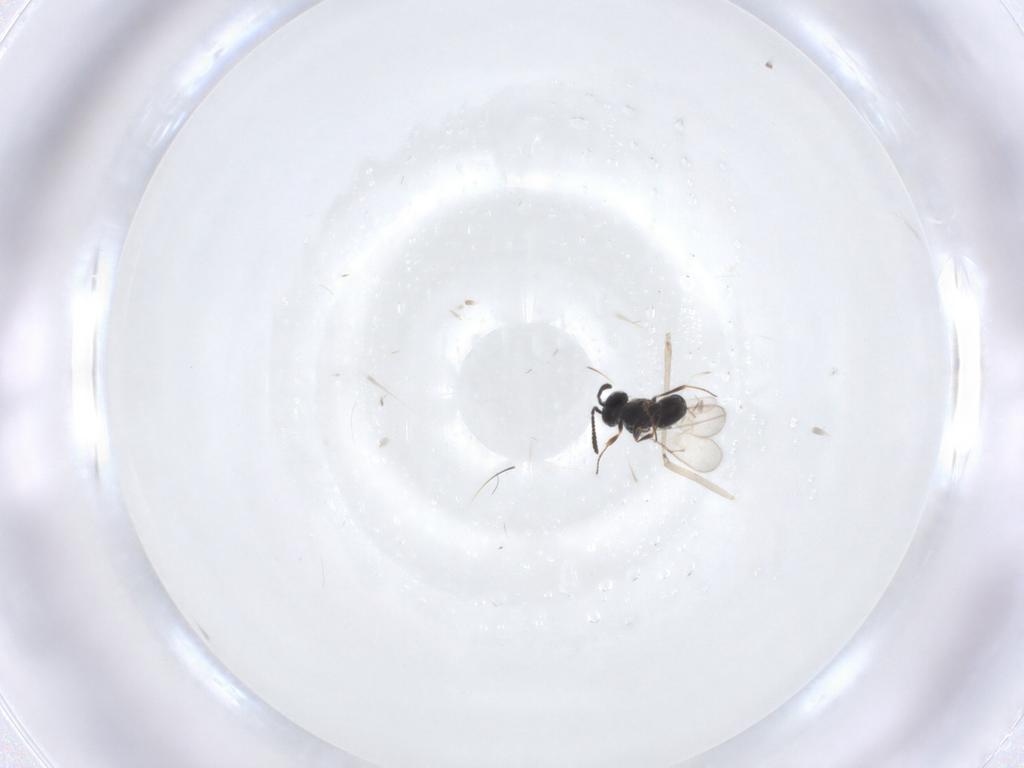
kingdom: Animalia
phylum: Arthropoda
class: Insecta
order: Hymenoptera
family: Scelionidae
